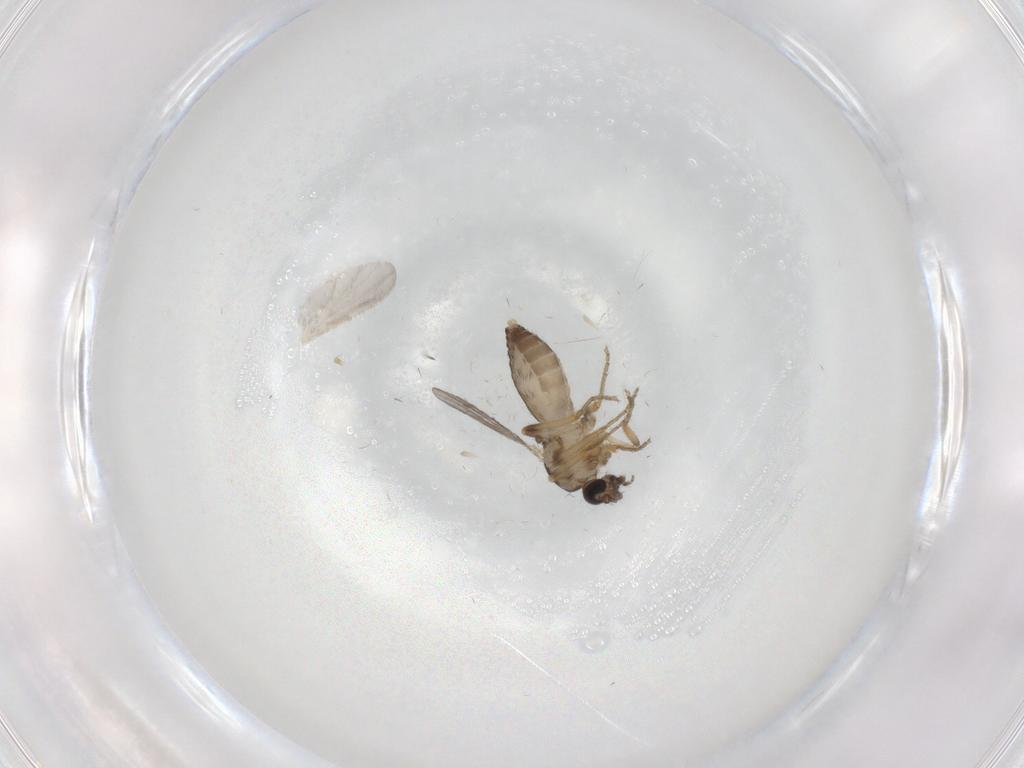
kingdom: Animalia
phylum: Arthropoda
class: Insecta
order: Diptera
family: Ceratopogonidae
